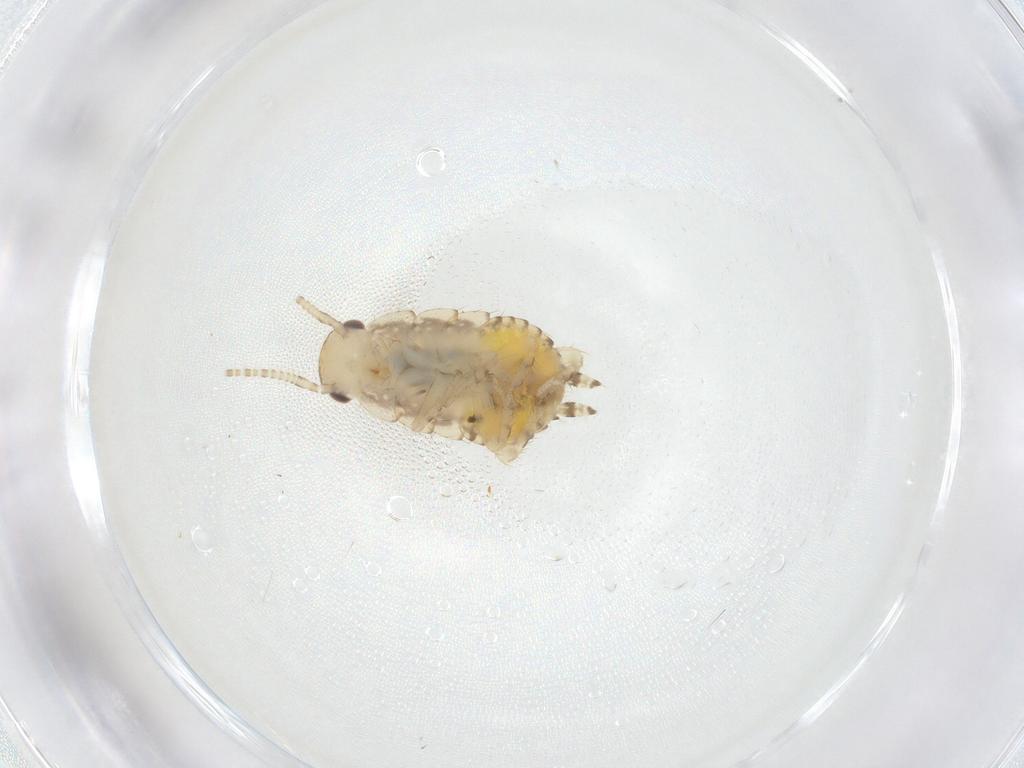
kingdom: Animalia
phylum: Arthropoda
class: Insecta
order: Blattodea
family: Ectobiidae
